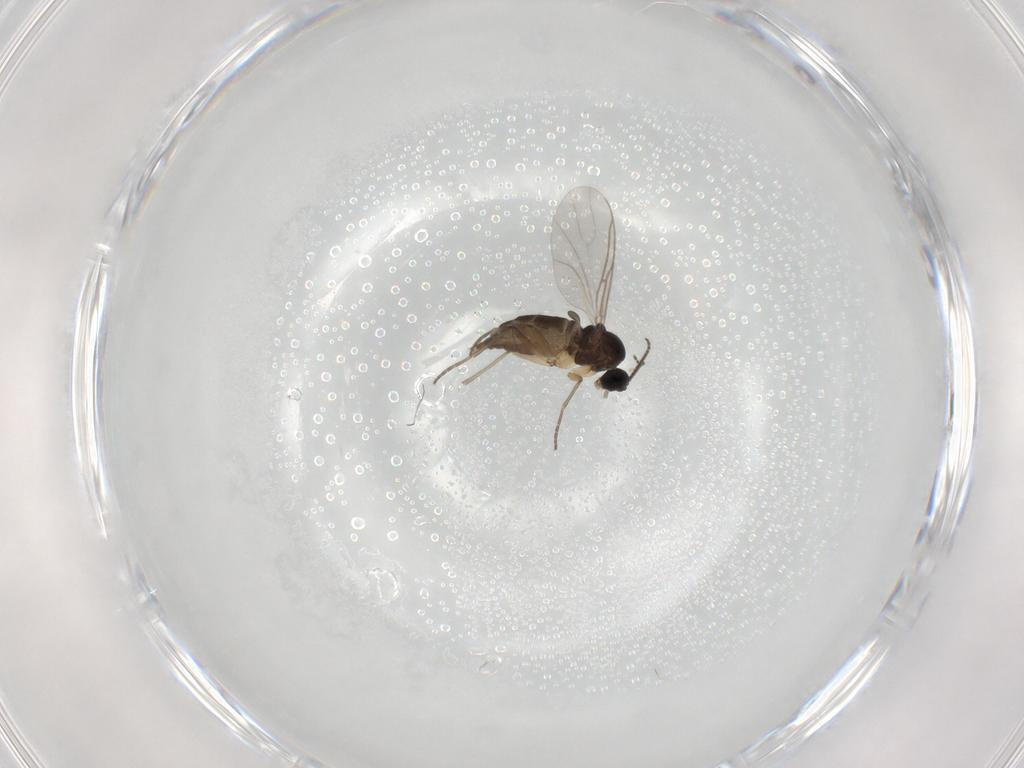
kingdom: Animalia
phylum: Arthropoda
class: Insecta
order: Diptera
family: Sciaridae
